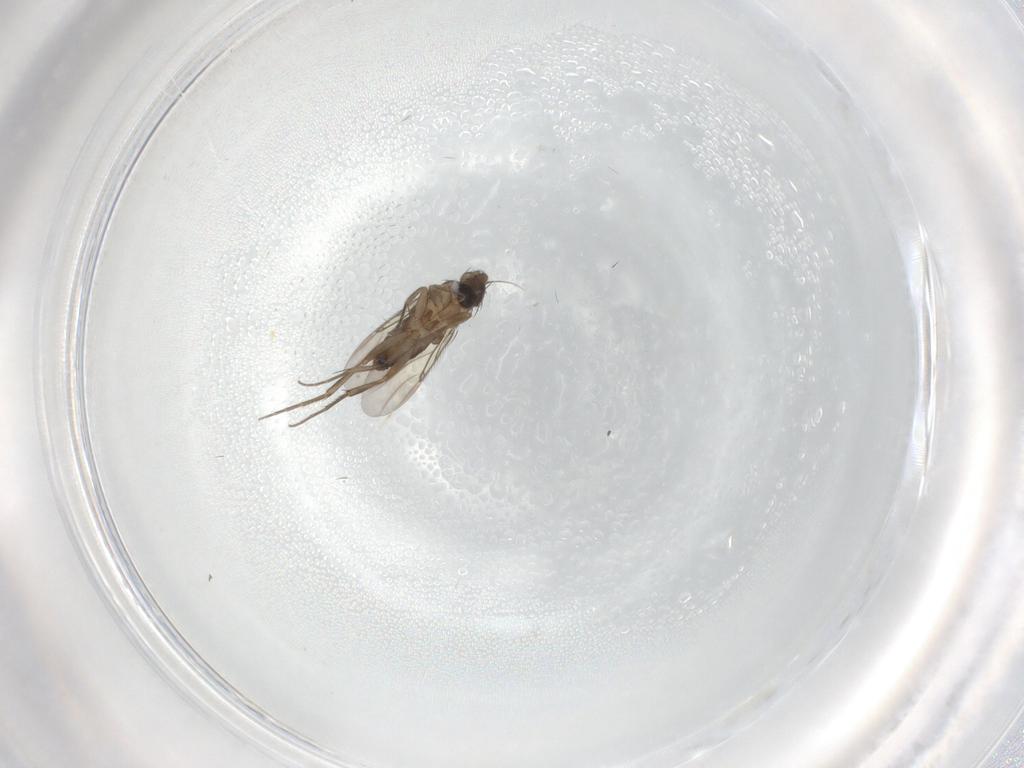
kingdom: Animalia
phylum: Arthropoda
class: Insecta
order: Diptera
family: Phoridae
